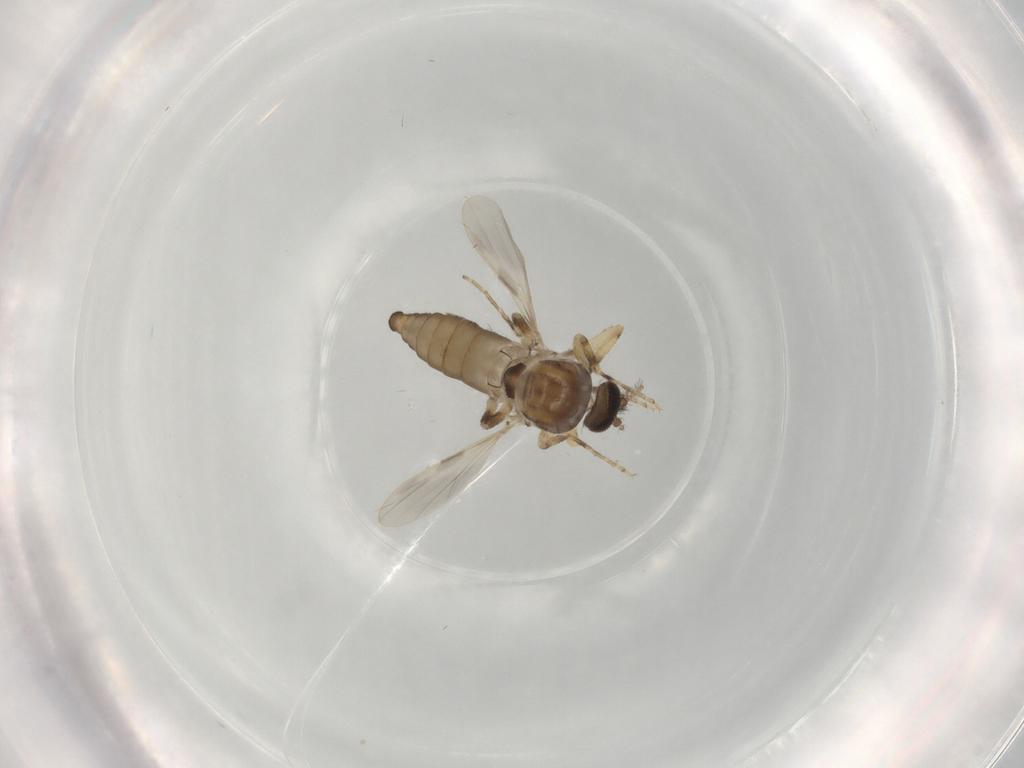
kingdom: Animalia
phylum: Arthropoda
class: Insecta
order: Diptera
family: Ceratopogonidae
